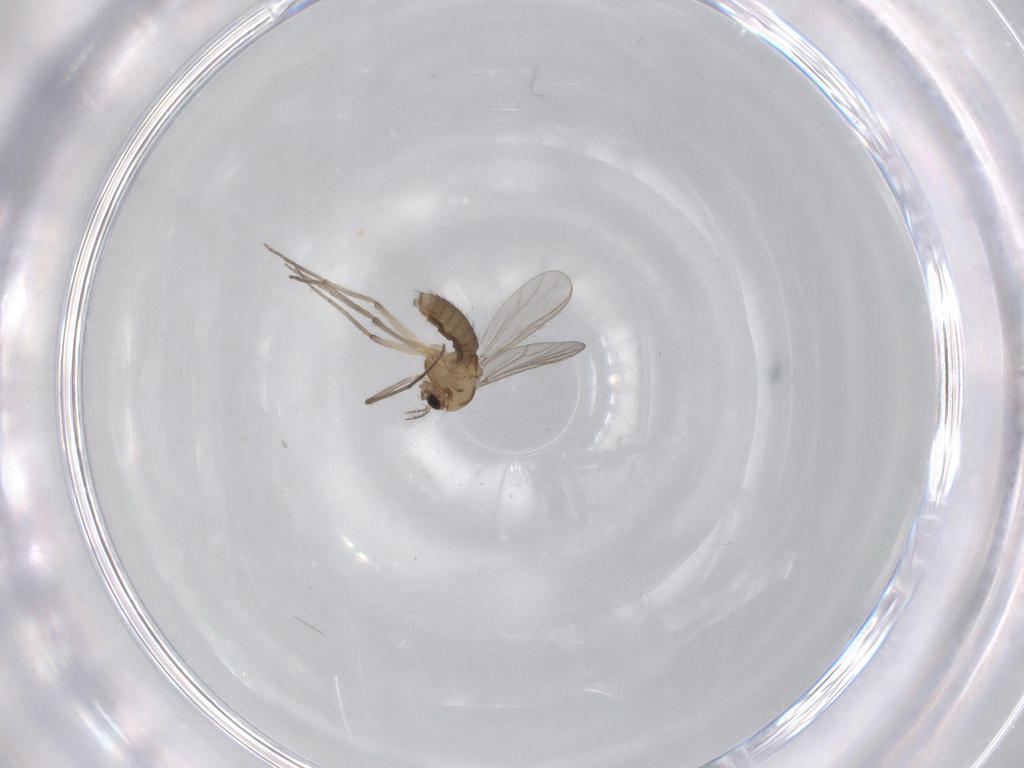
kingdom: Animalia
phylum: Arthropoda
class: Insecta
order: Diptera
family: Chironomidae
